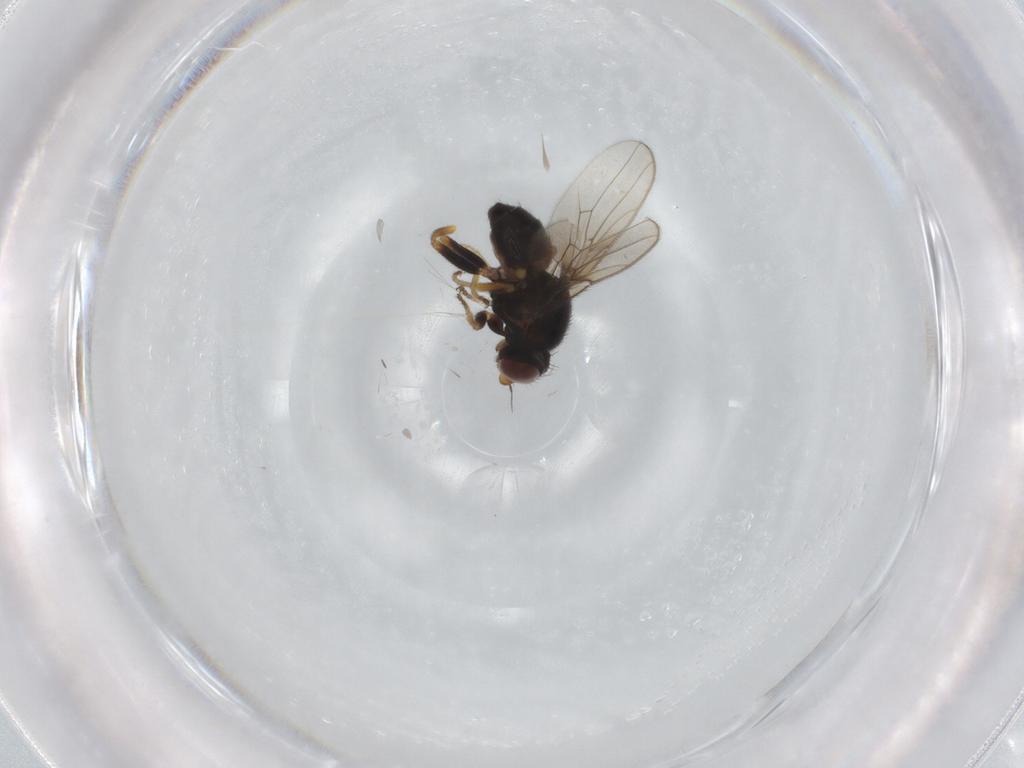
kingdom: Animalia
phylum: Arthropoda
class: Insecta
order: Diptera
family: Chloropidae
